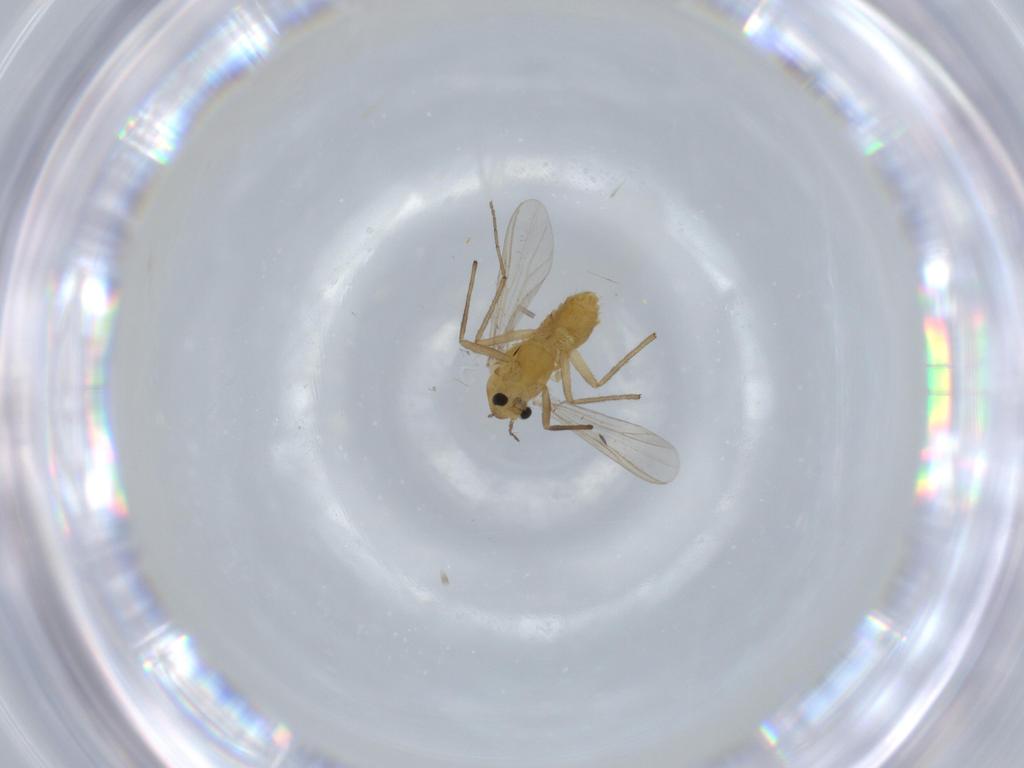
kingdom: Animalia
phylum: Arthropoda
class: Insecta
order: Diptera
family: Chironomidae
